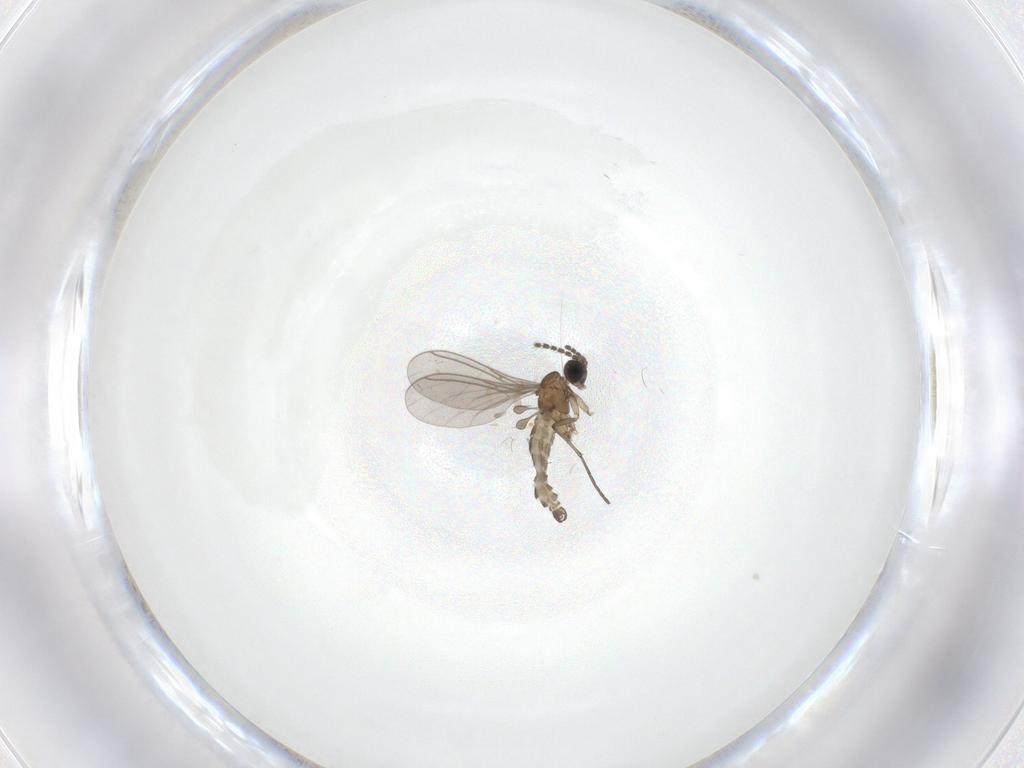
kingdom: Animalia
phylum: Arthropoda
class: Insecta
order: Diptera
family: Sciaridae
